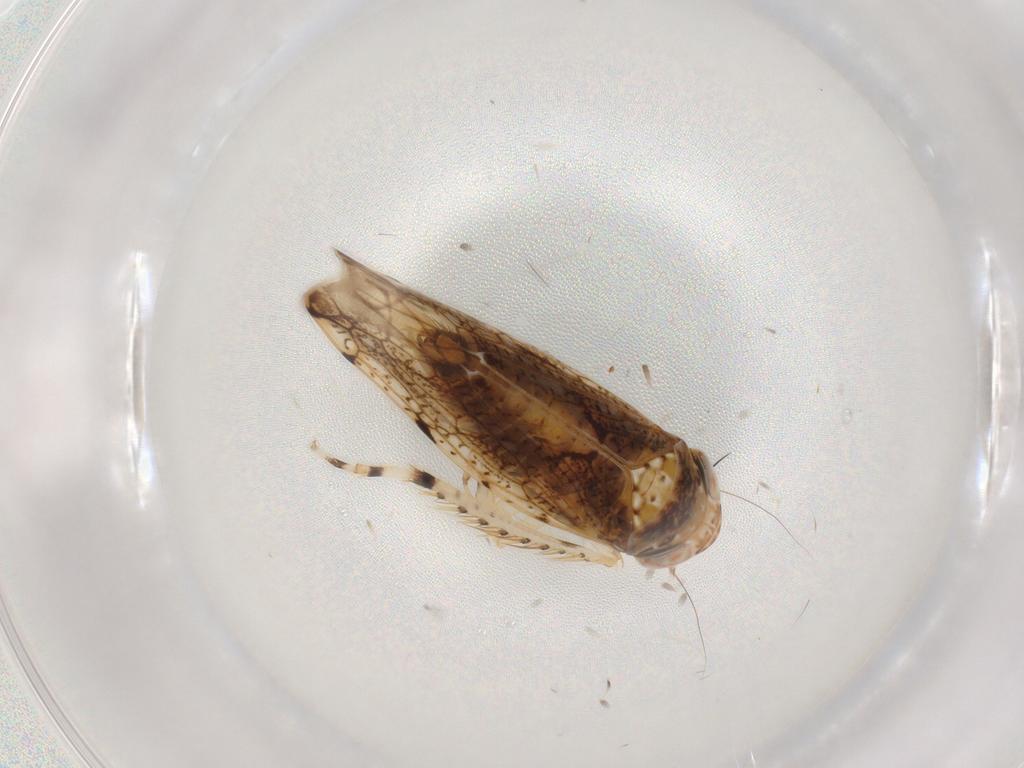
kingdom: Animalia
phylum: Arthropoda
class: Insecta
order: Hemiptera
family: Cicadellidae
